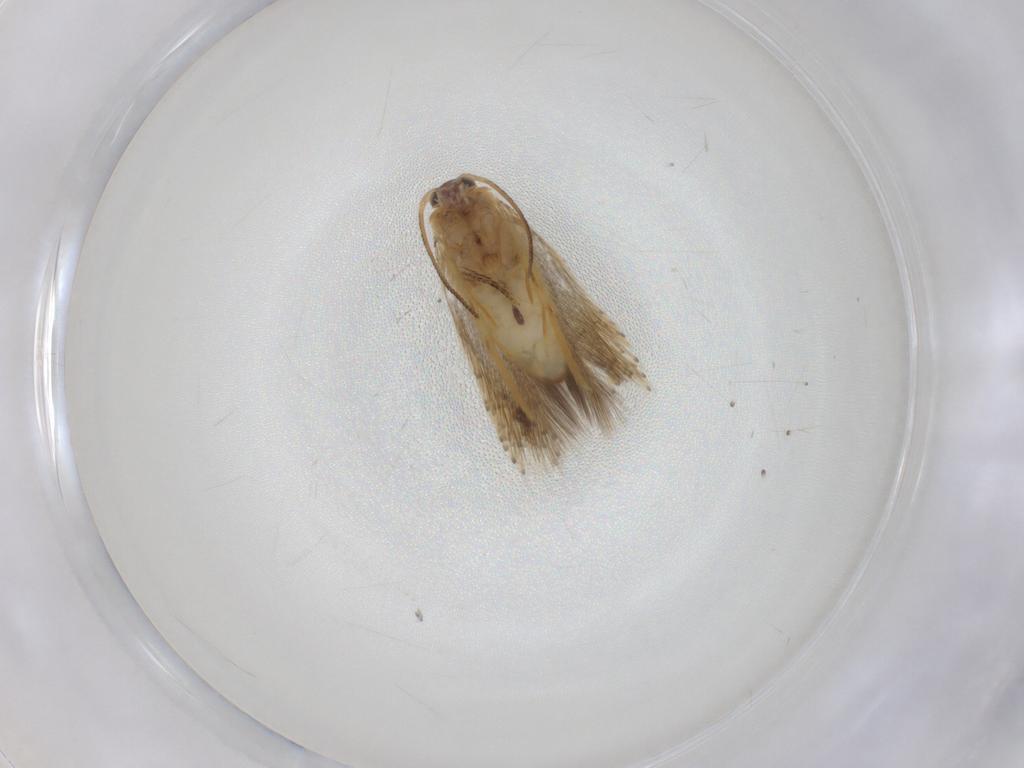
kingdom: Animalia
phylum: Arthropoda
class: Insecta
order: Lepidoptera
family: Nepticulidae
